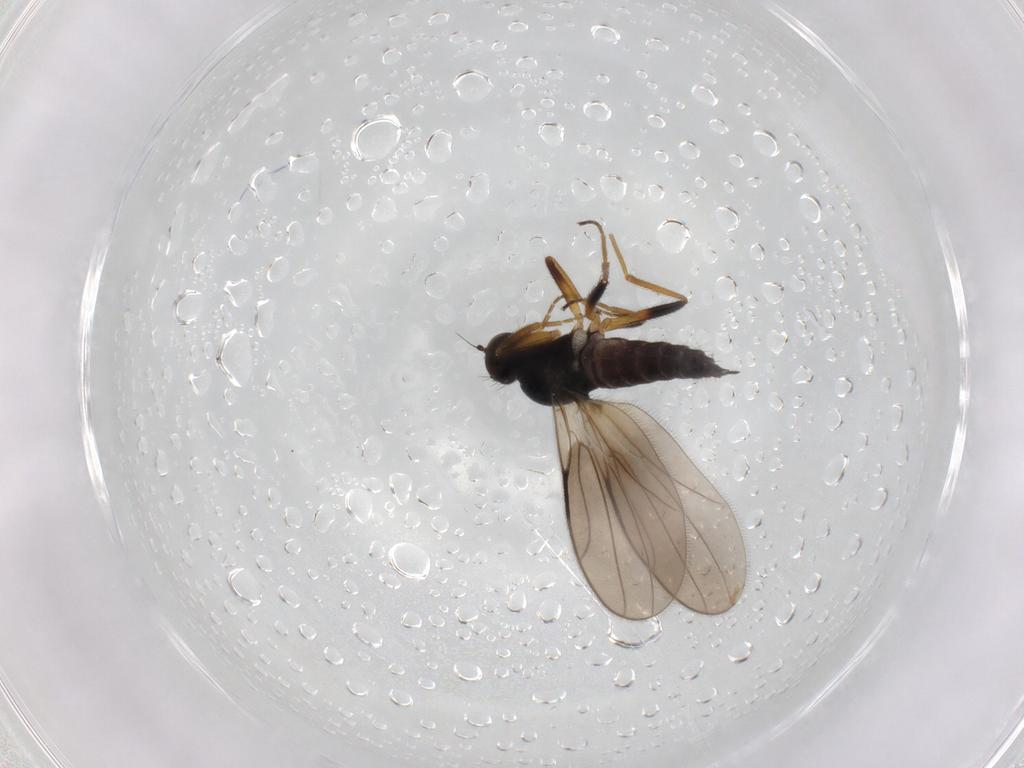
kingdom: Animalia
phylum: Arthropoda
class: Insecta
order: Diptera
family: Hybotidae
